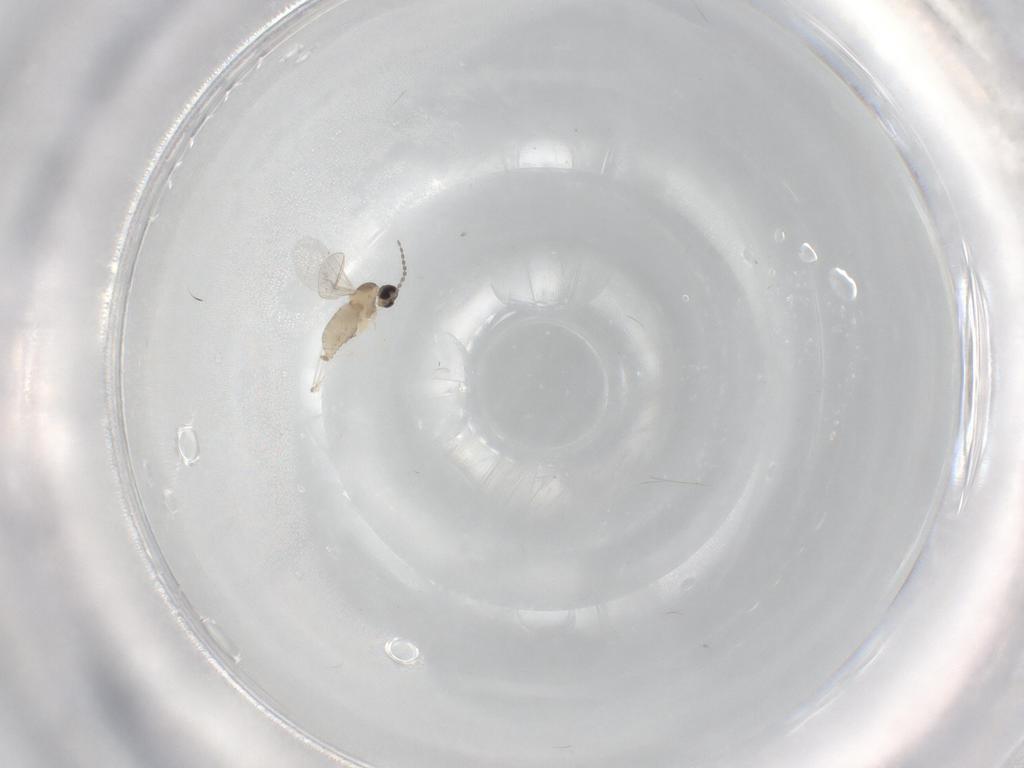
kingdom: Animalia
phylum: Arthropoda
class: Insecta
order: Diptera
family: Cecidomyiidae
